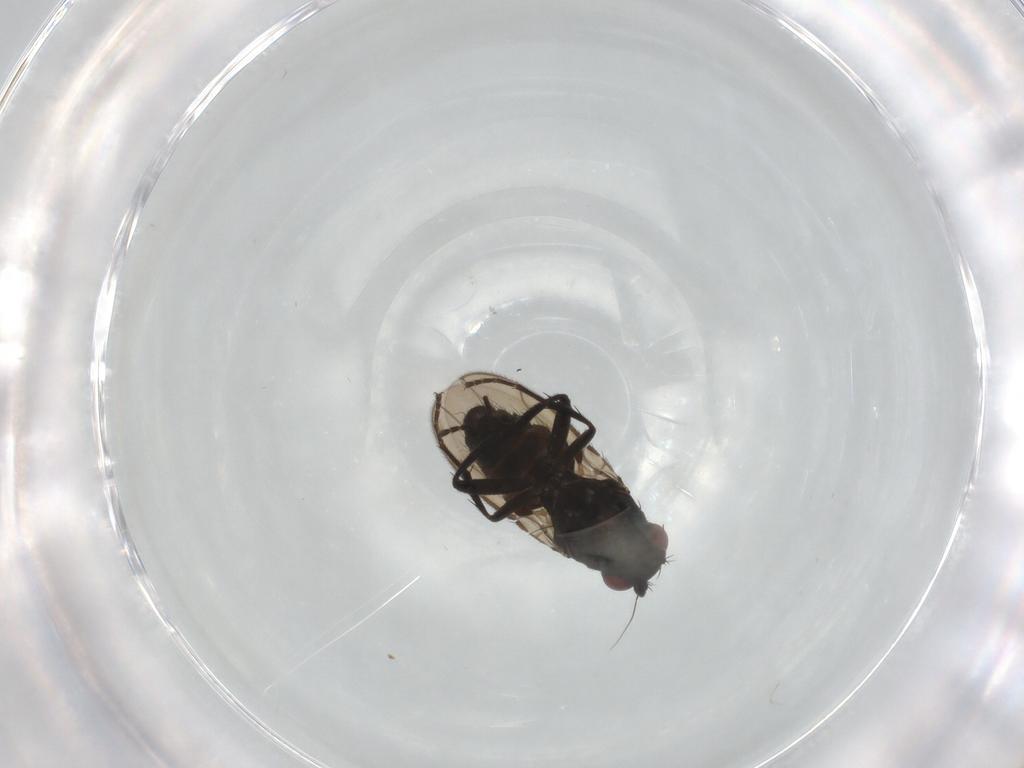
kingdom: Animalia
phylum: Arthropoda
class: Insecta
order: Diptera
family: Sphaeroceridae
